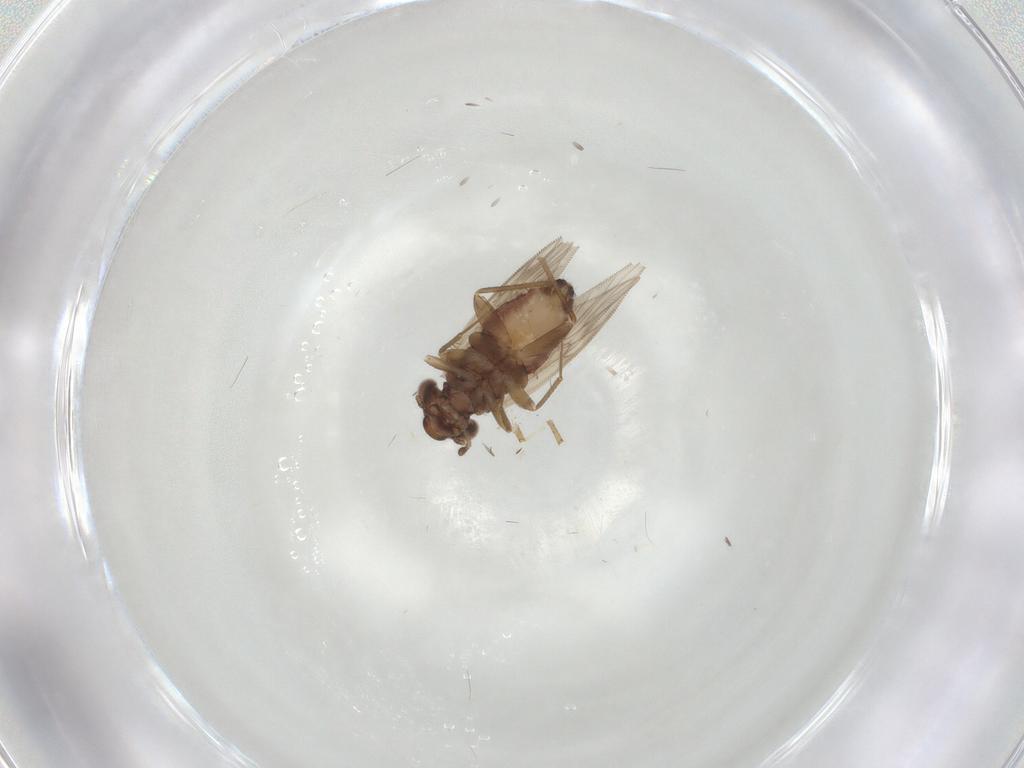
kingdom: Animalia
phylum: Arthropoda
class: Insecta
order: Psocodea
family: Lepidopsocidae
